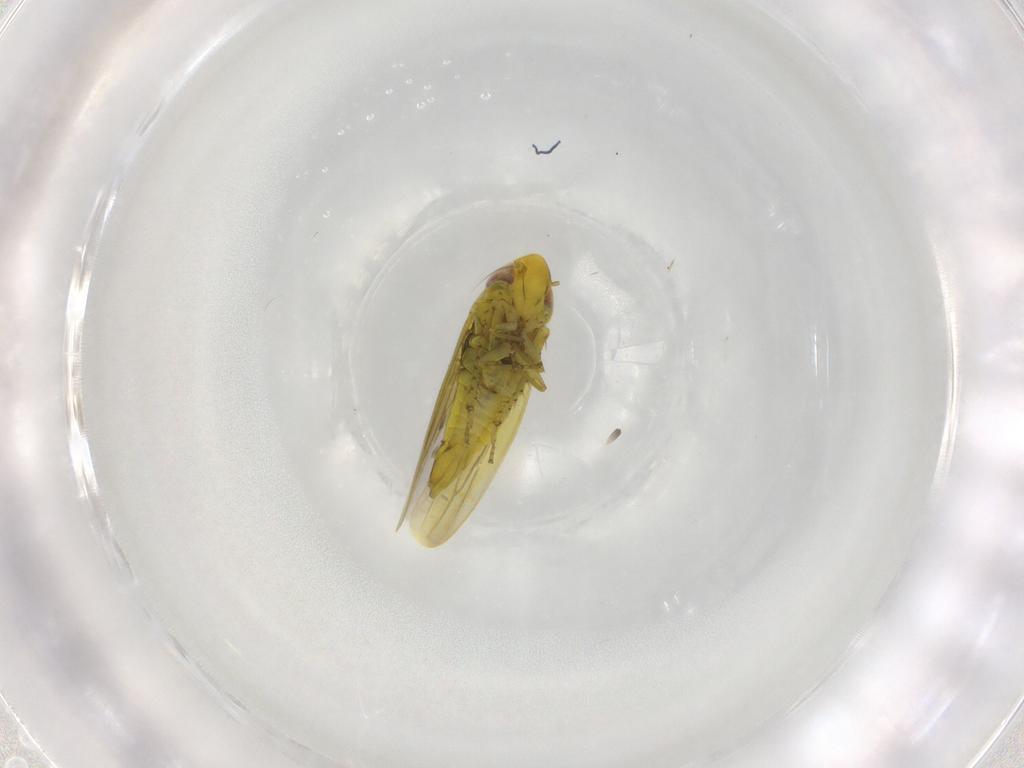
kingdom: Animalia
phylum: Arthropoda
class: Insecta
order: Hemiptera
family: Cicadellidae
